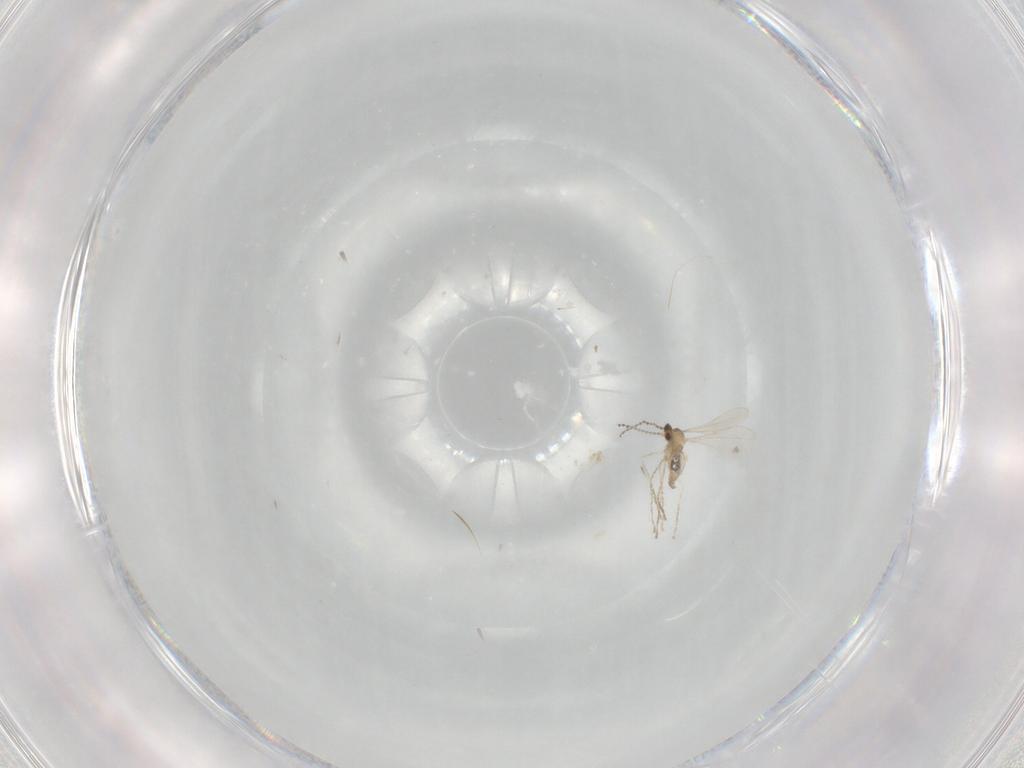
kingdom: Animalia
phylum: Arthropoda
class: Insecta
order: Diptera
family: Cecidomyiidae
